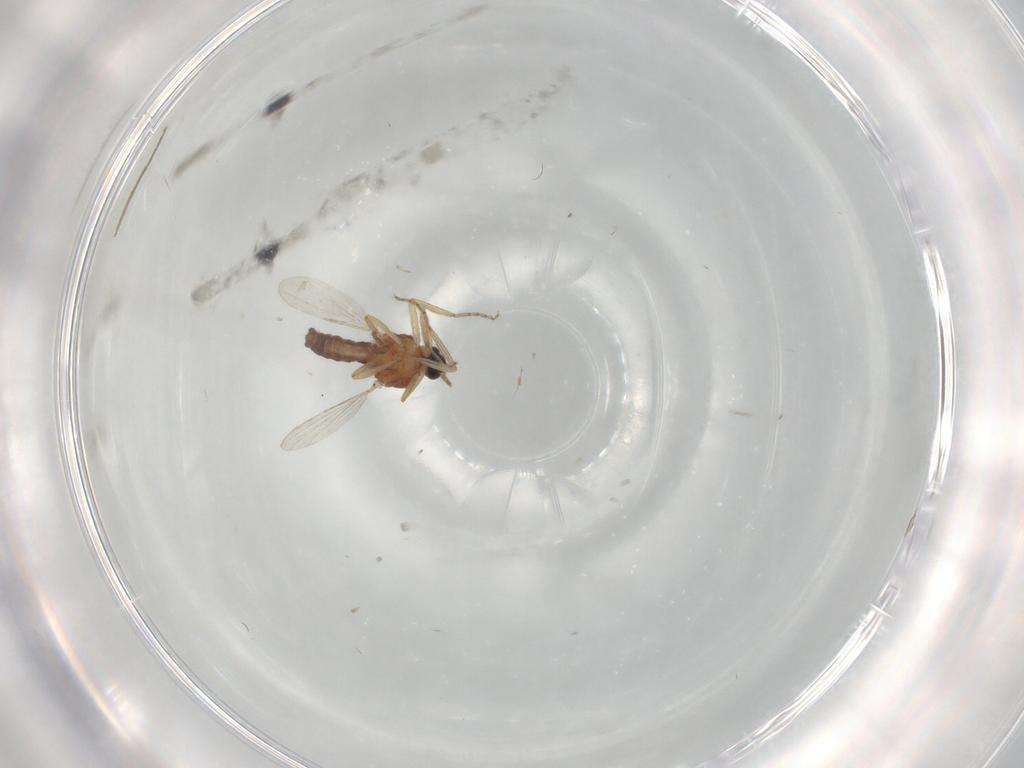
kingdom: Animalia
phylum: Arthropoda
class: Insecta
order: Diptera
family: Ceratopogonidae
